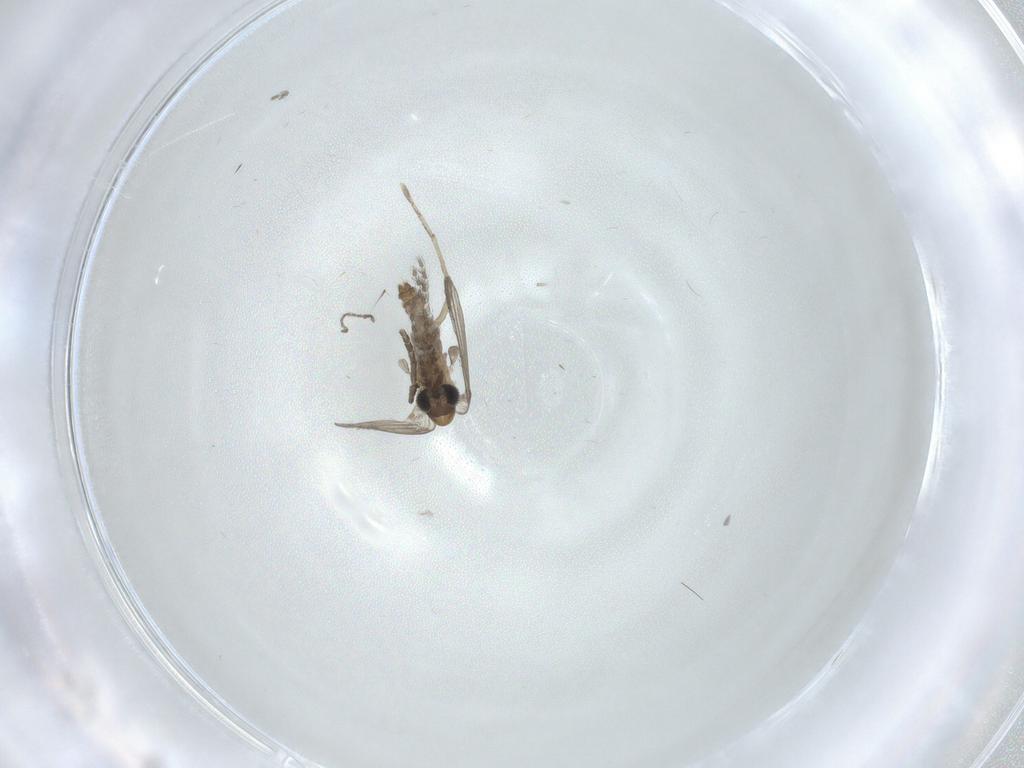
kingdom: Animalia
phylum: Arthropoda
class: Insecta
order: Diptera
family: Psychodidae
